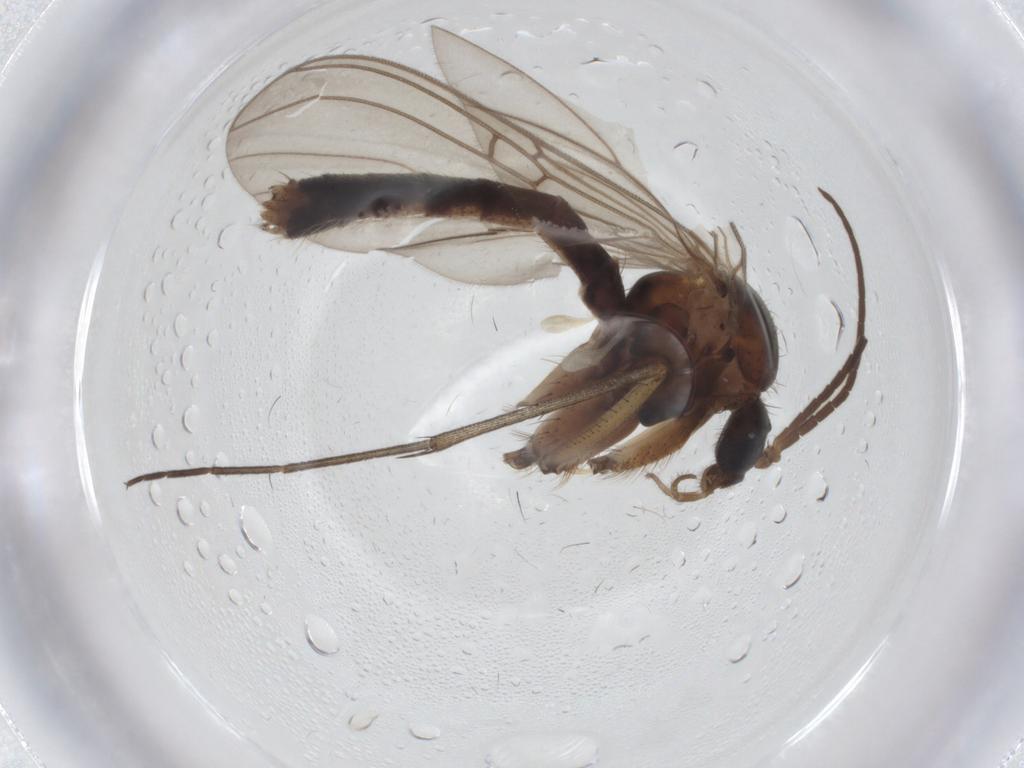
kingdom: Animalia
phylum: Arthropoda
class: Insecta
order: Diptera
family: Mycetophilidae
